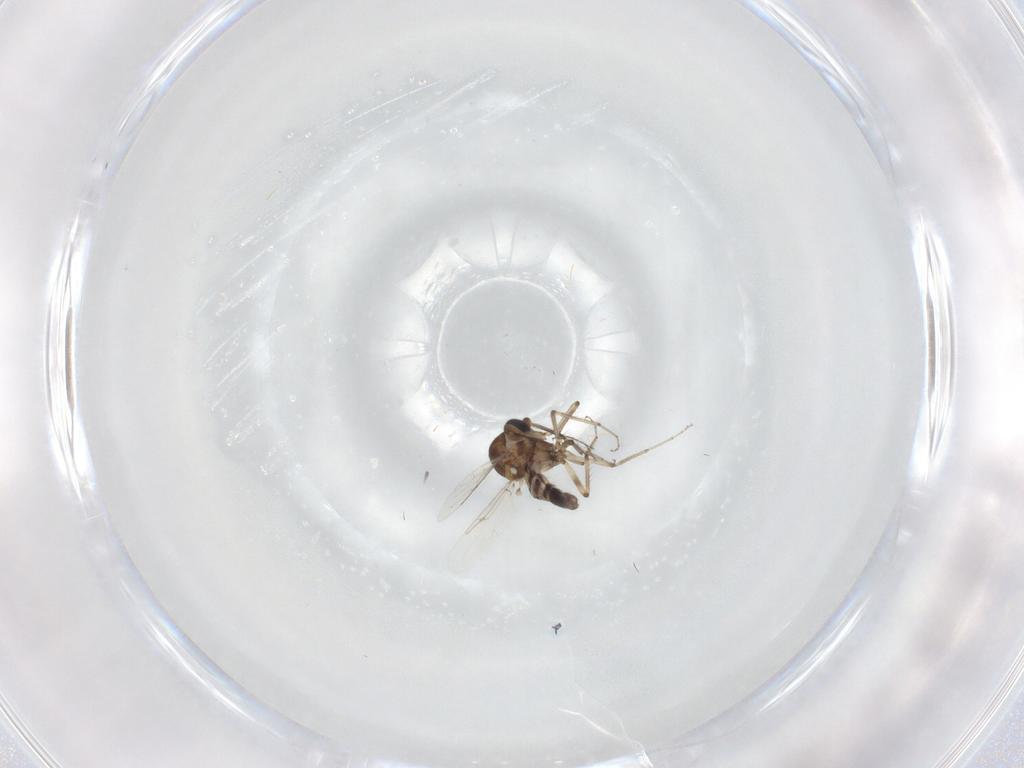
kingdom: Animalia
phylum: Arthropoda
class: Insecta
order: Diptera
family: Ceratopogonidae
